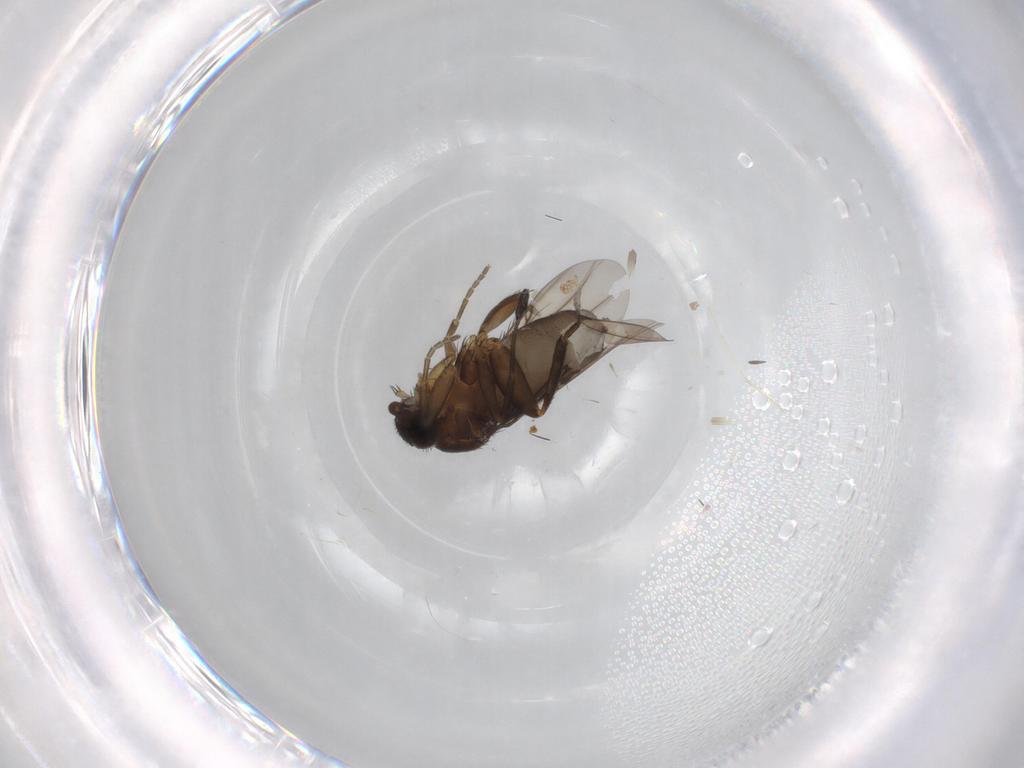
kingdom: Animalia
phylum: Arthropoda
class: Insecta
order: Diptera
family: Phoridae
